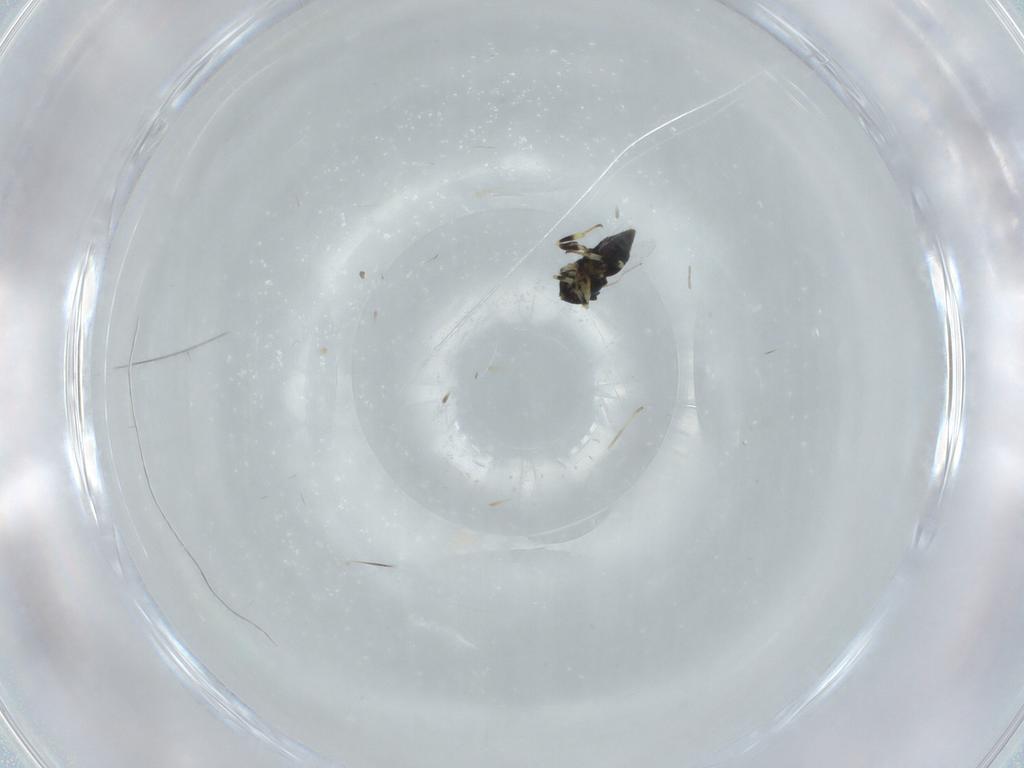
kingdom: Animalia
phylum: Arthropoda
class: Insecta
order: Hymenoptera
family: Encyrtidae
